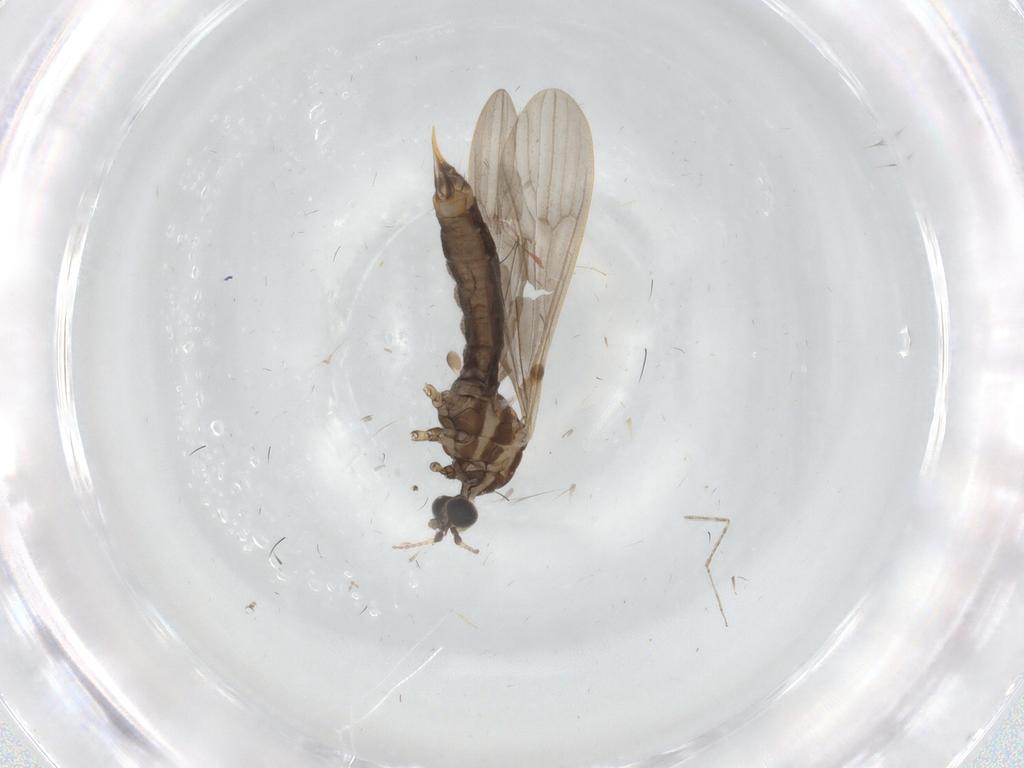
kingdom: Animalia
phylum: Arthropoda
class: Insecta
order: Diptera
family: Limoniidae
